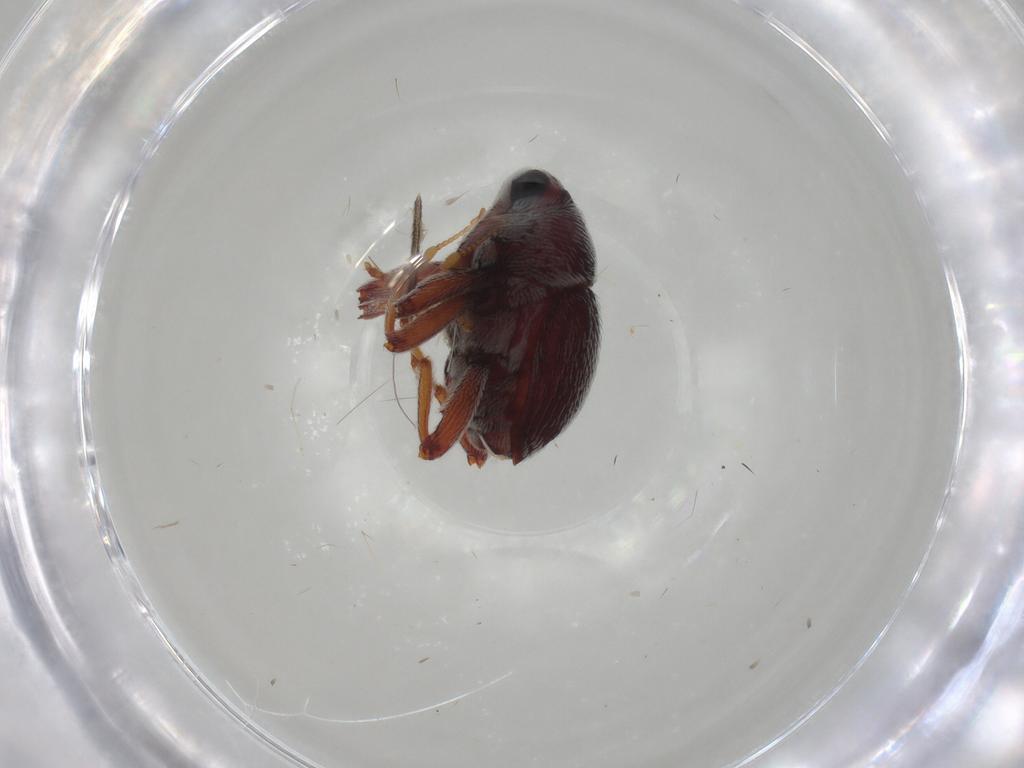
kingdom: Animalia
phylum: Arthropoda
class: Insecta
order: Coleoptera
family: Curculionidae
